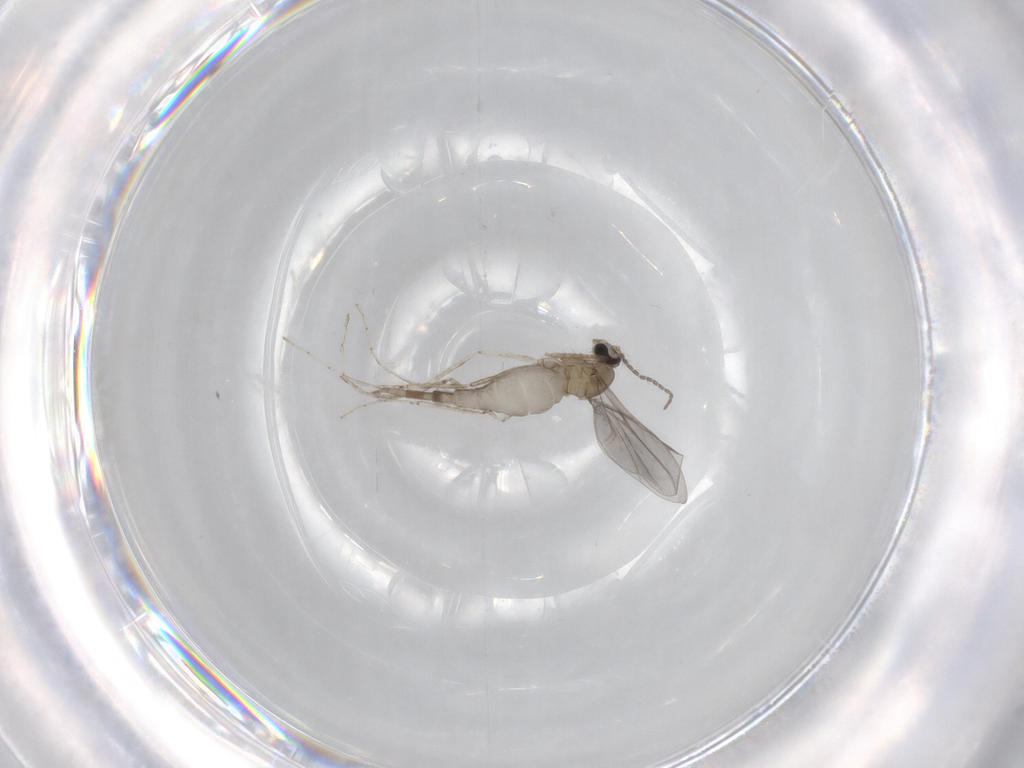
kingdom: Animalia
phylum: Arthropoda
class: Insecta
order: Diptera
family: Cecidomyiidae
